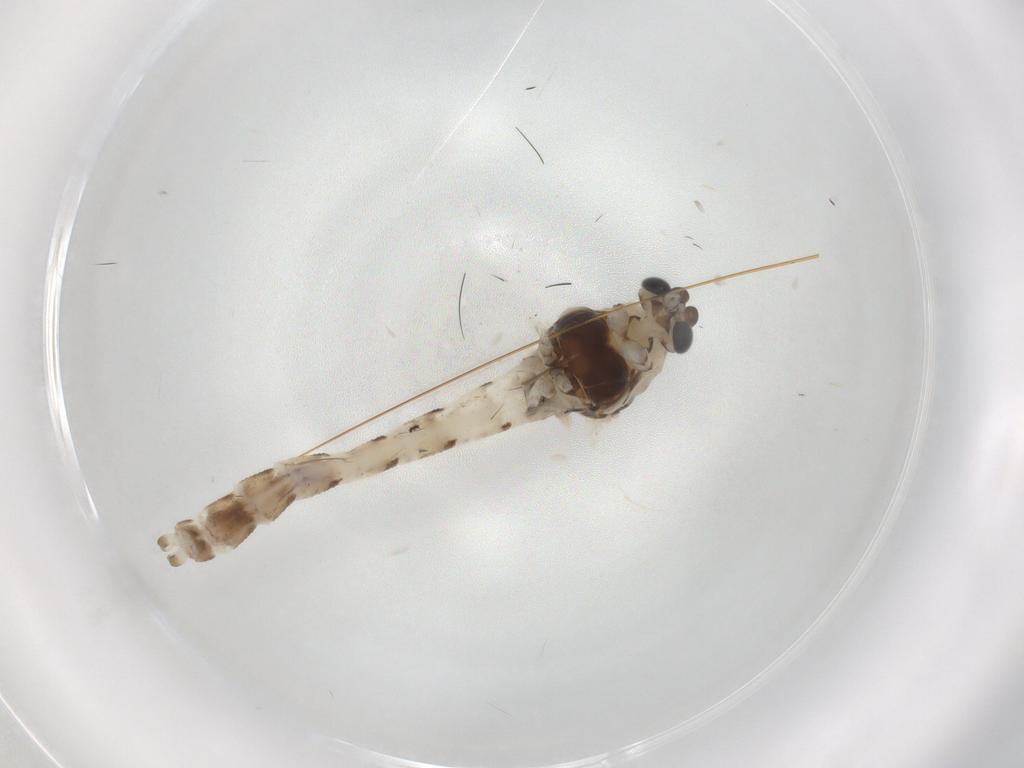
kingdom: Animalia
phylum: Arthropoda
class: Insecta
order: Diptera
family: Chironomidae
